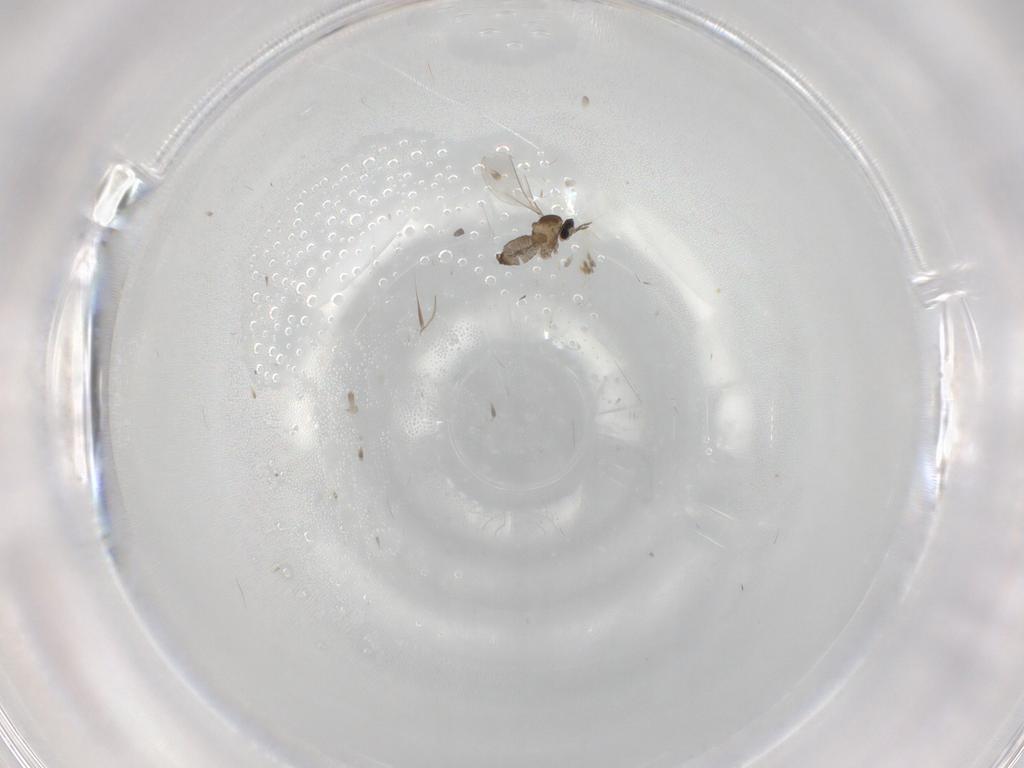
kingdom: Animalia
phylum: Arthropoda
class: Insecta
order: Diptera
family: Cecidomyiidae
